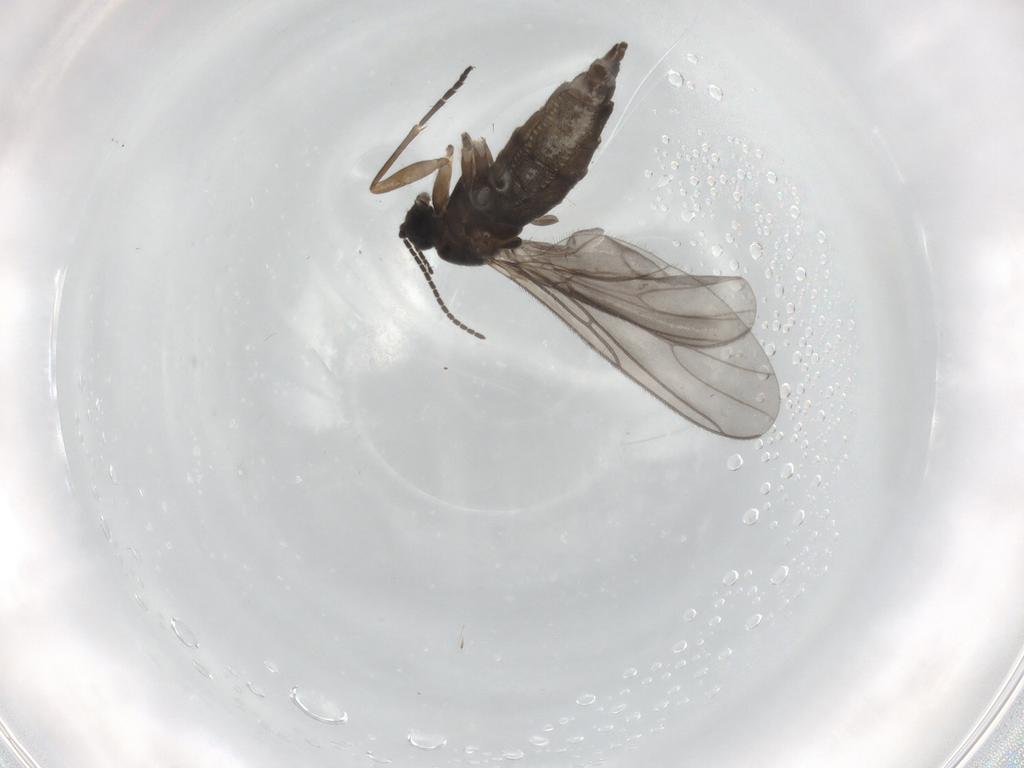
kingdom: Animalia
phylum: Arthropoda
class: Insecta
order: Diptera
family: Sciaridae
